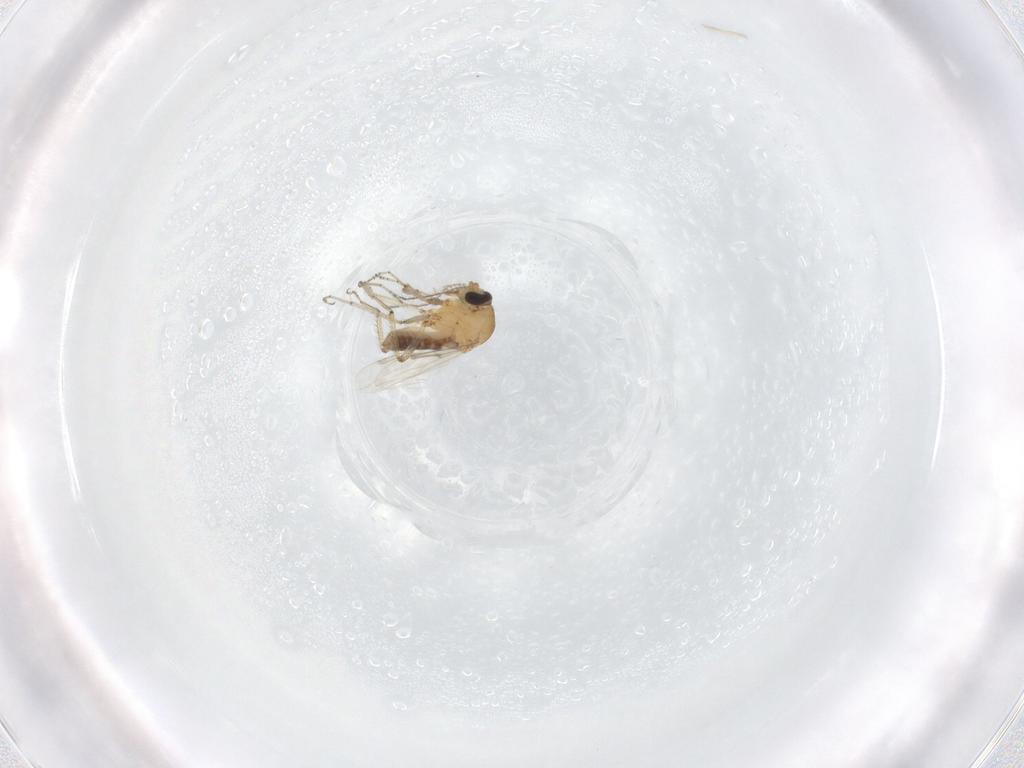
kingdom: Animalia
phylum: Arthropoda
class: Insecta
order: Diptera
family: Ceratopogonidae
